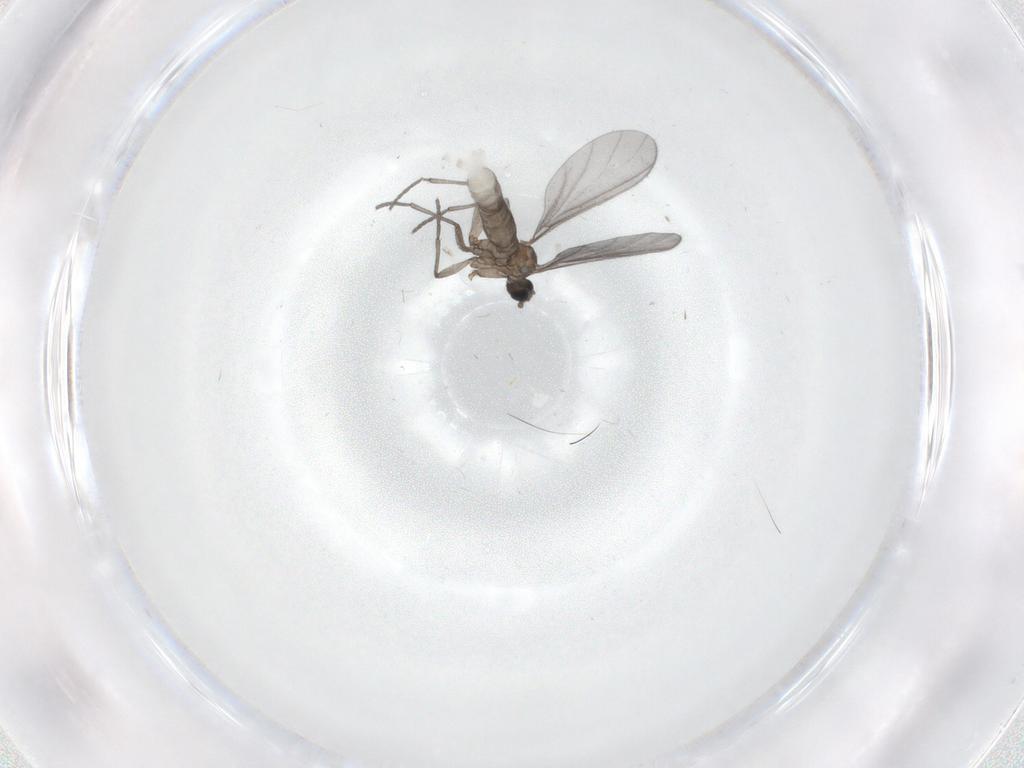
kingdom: Animalia
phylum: Arthropoda
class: Insecta
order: Diptera
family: Sciaridae
